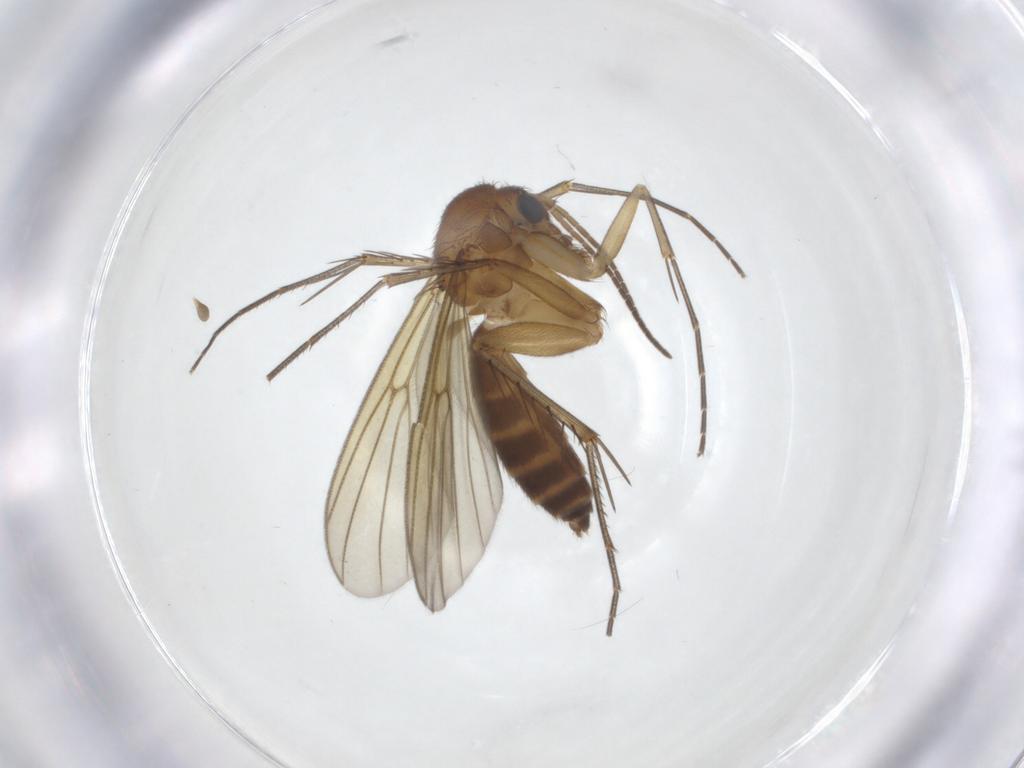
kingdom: Animalia
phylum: Arthropoda
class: Insecta
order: Diptera
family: Mycetophilidae
